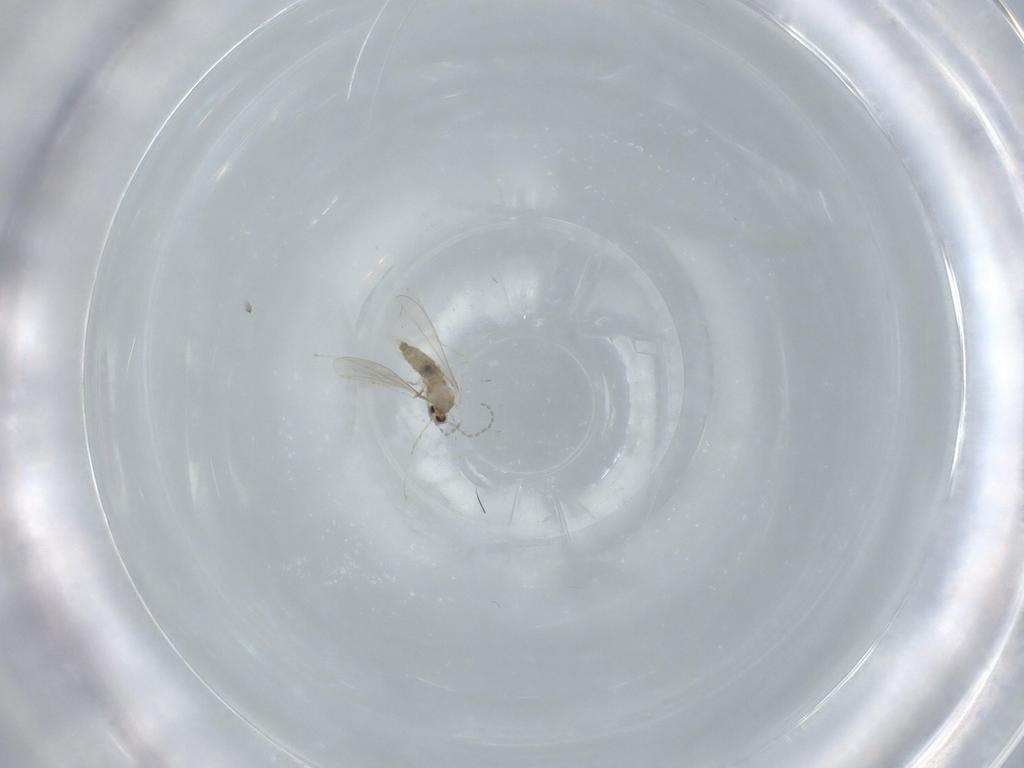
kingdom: Animalia
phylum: Arthropoda
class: Insecta
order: Diptera
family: Cecidomyiidae
